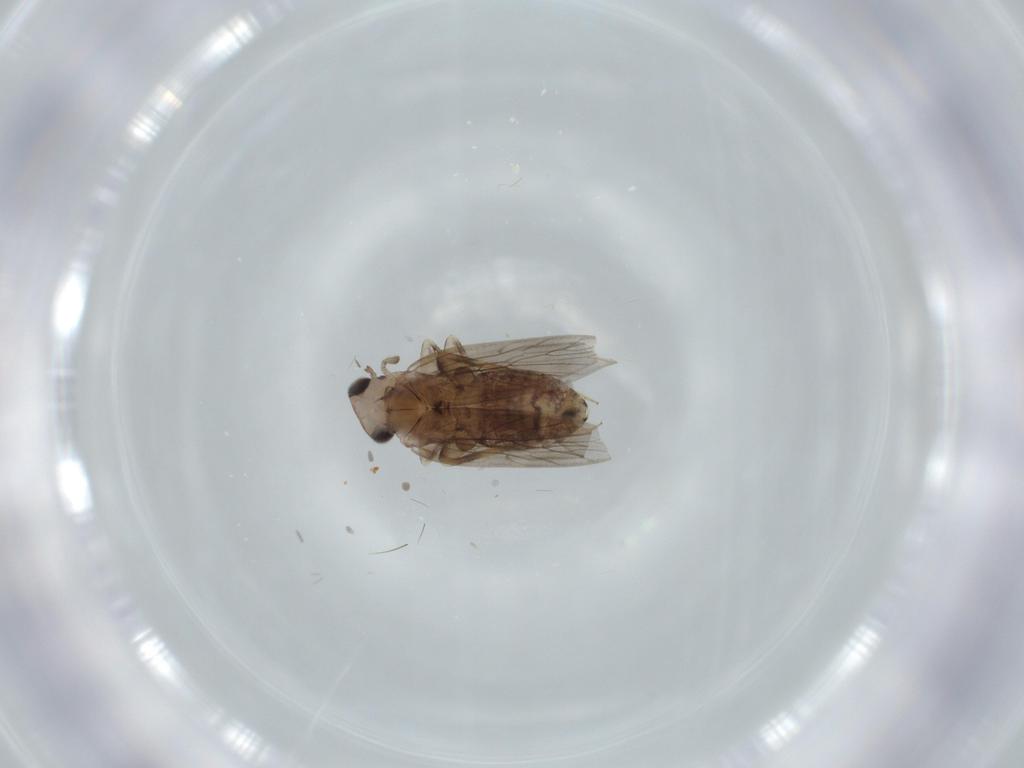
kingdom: Animalia
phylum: Arthropoda
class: Insecta
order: Psocodea
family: Lepidopsocidae
